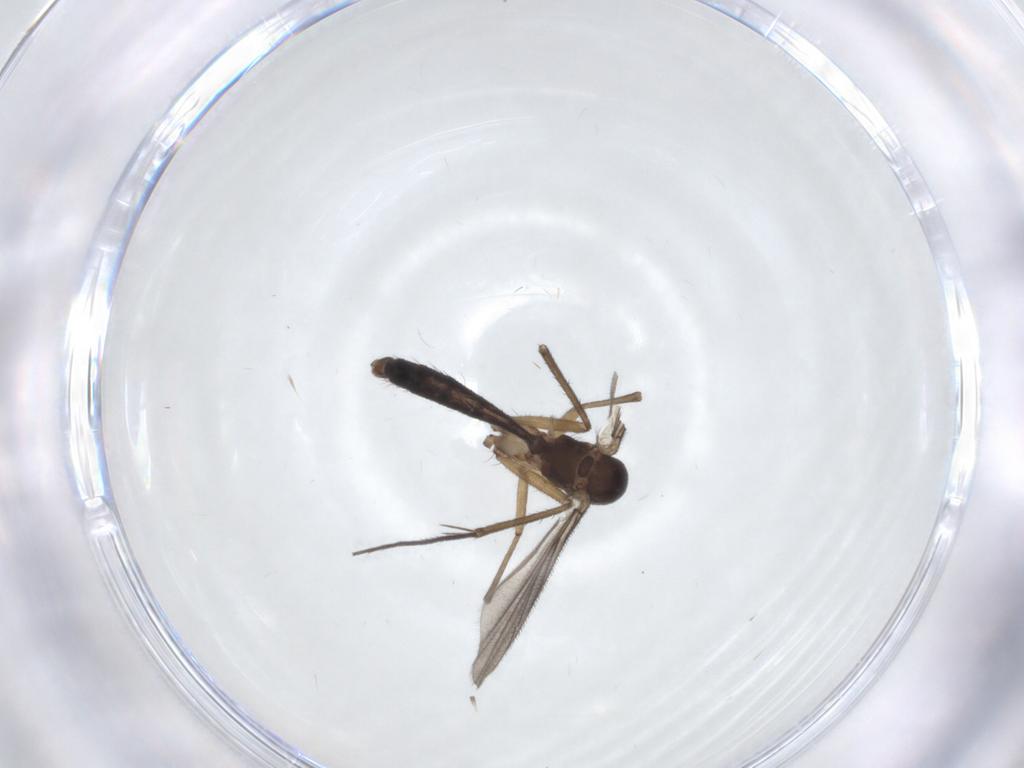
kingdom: Animalia
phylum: Arthropoda
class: Insecta
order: Diptera
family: Mycetophilidae
